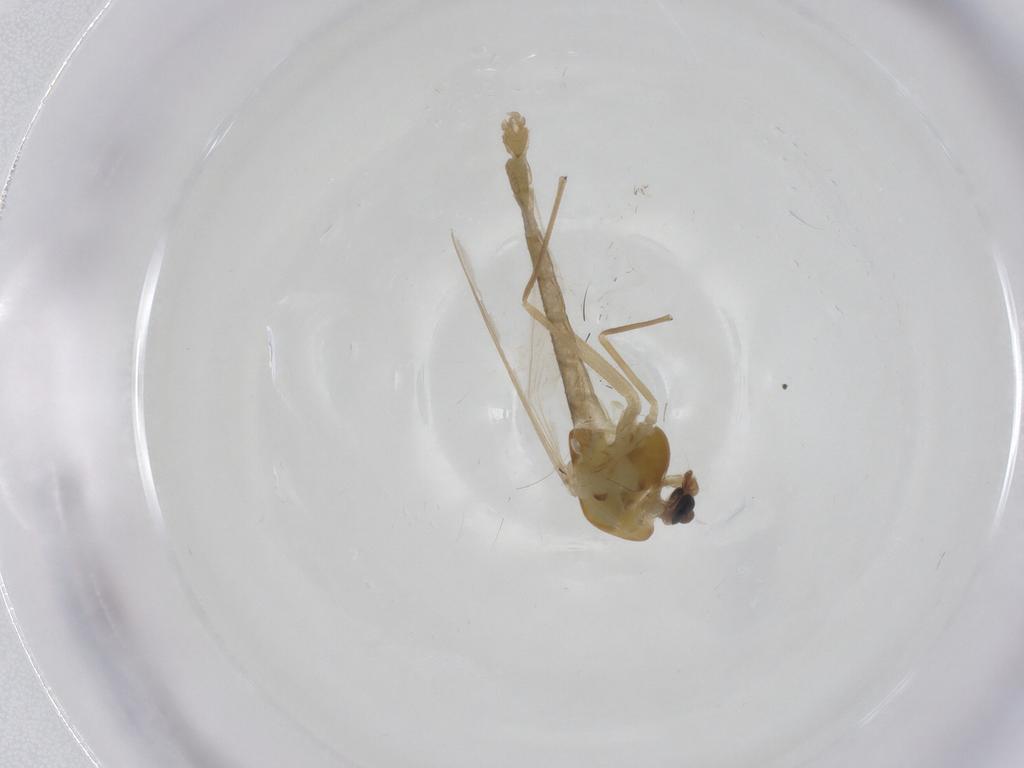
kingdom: Animalia
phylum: Arthropoda
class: Insecta
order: Diptera
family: Chironomidae
